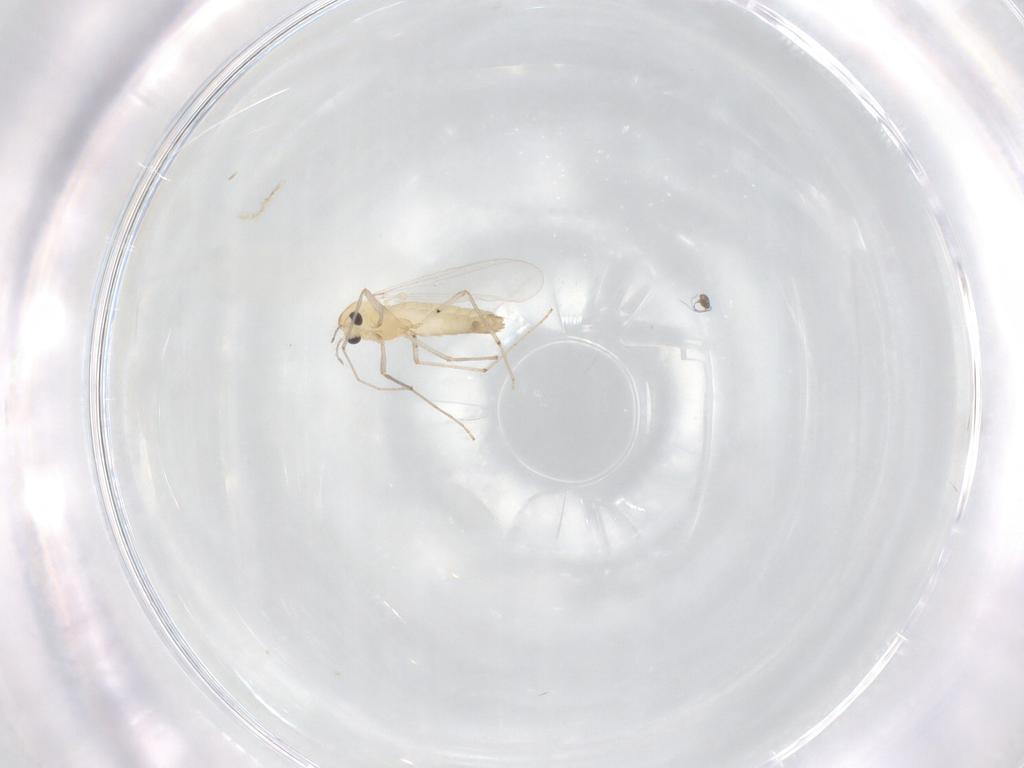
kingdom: Animalia
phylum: Arthropoda
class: Insecta
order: Diptera
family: Chironomidae
